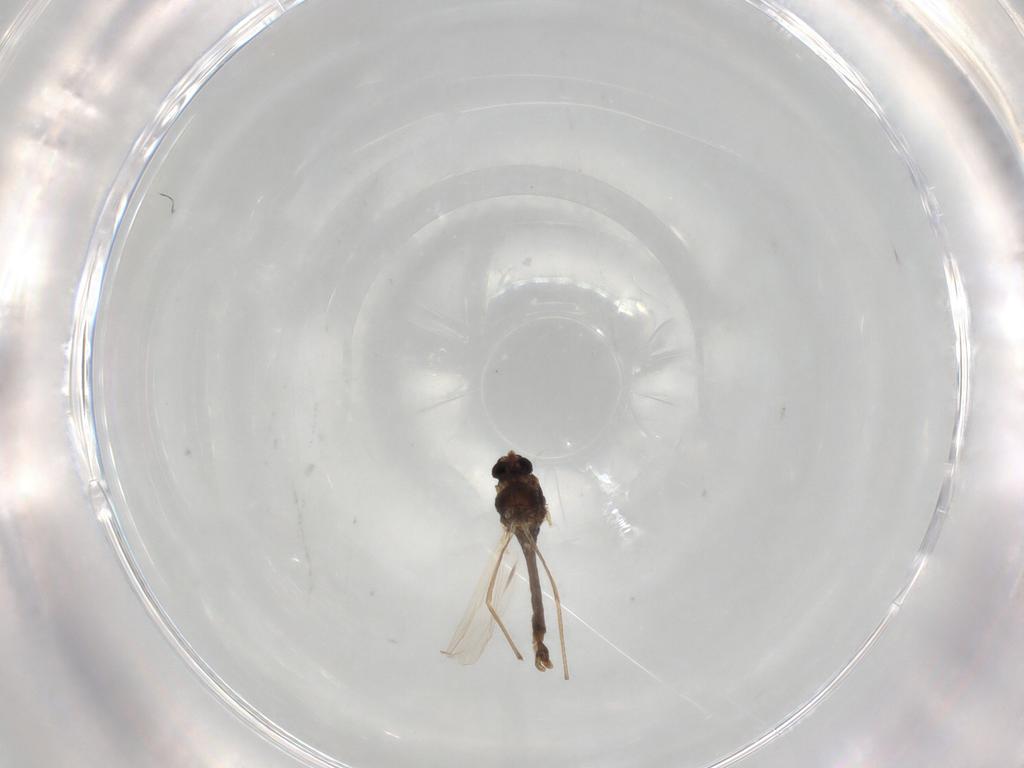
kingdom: Animalia
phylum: Arthropoda
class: Insecta
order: Diptera
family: Chironomidae
